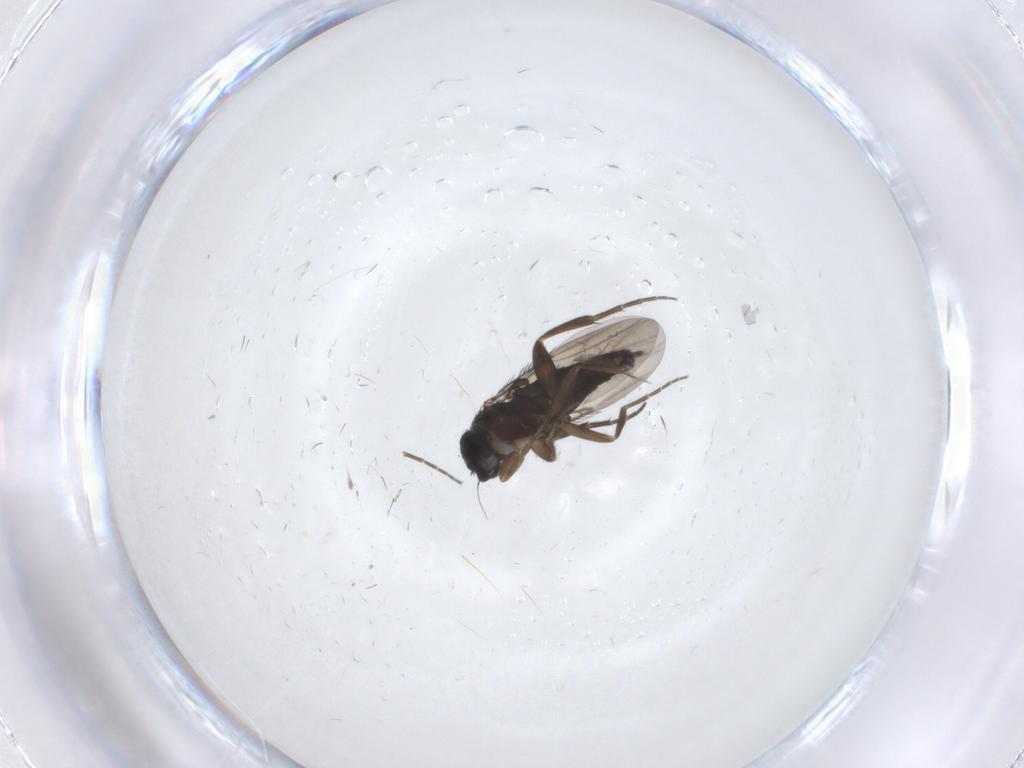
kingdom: Animalia
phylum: Arthropoda
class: Insecta
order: Diptera
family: Phoridae
